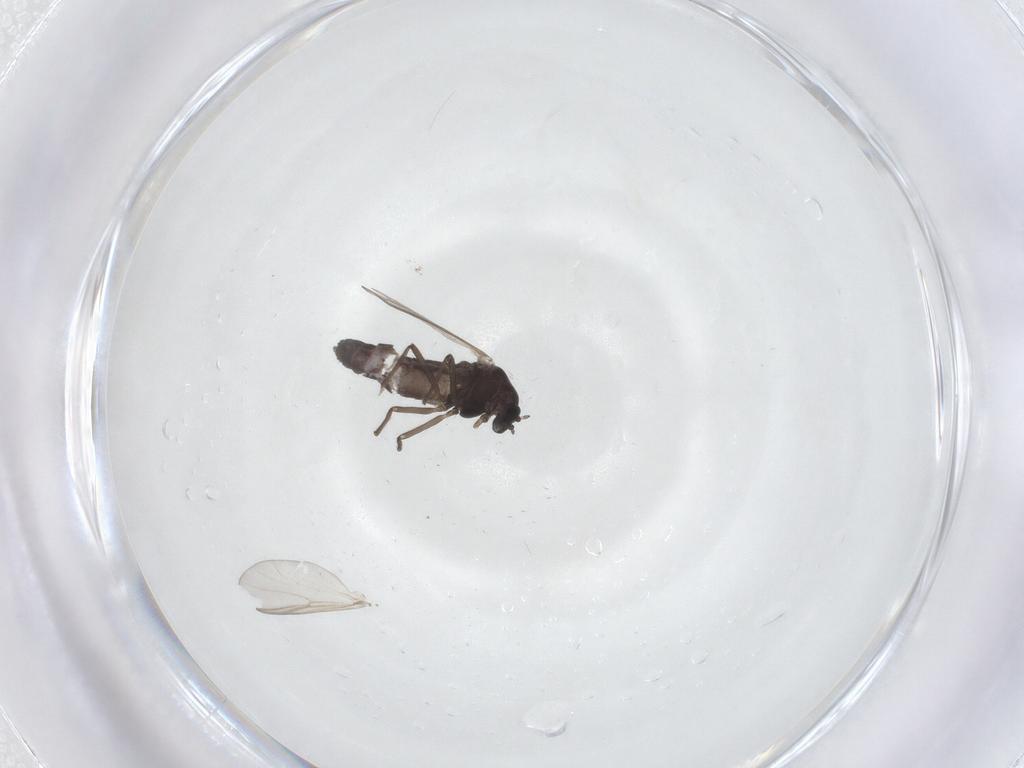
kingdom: Animalia
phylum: Arthropoda
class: Insecta
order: Diptera
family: Chironomidae
